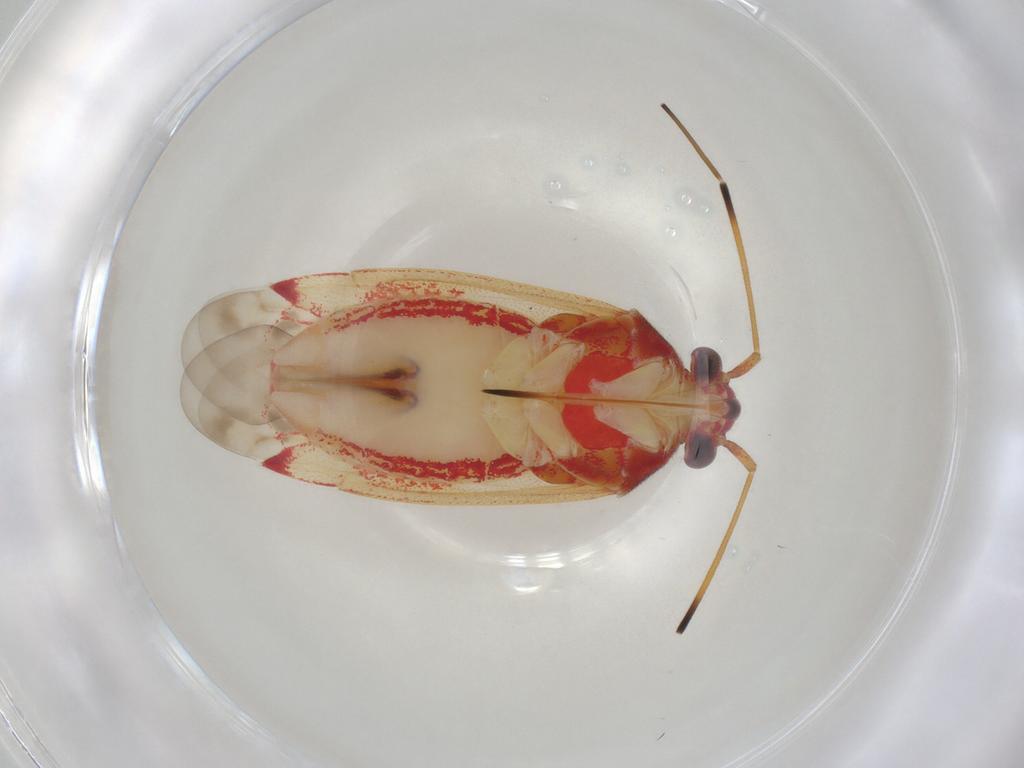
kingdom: Animalia
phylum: Arthropoda
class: Insecta
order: Hemiptera
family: Miridae
